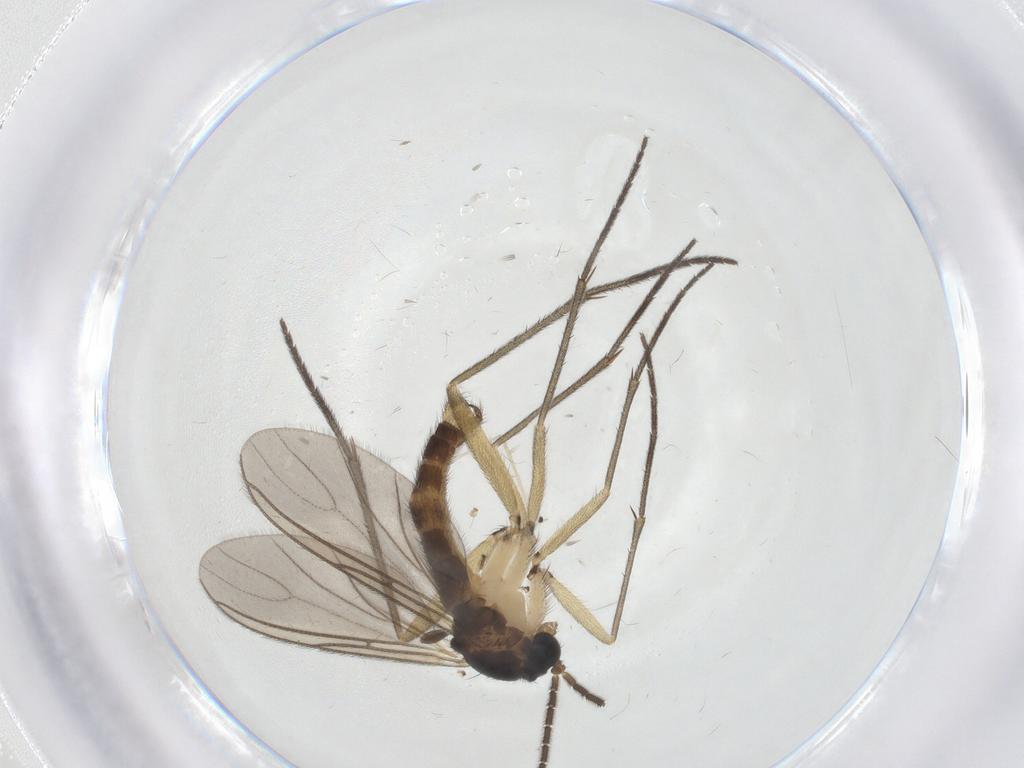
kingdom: Animalia
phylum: Arthropoda
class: Insecta
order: Diptera
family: Sciaridae
